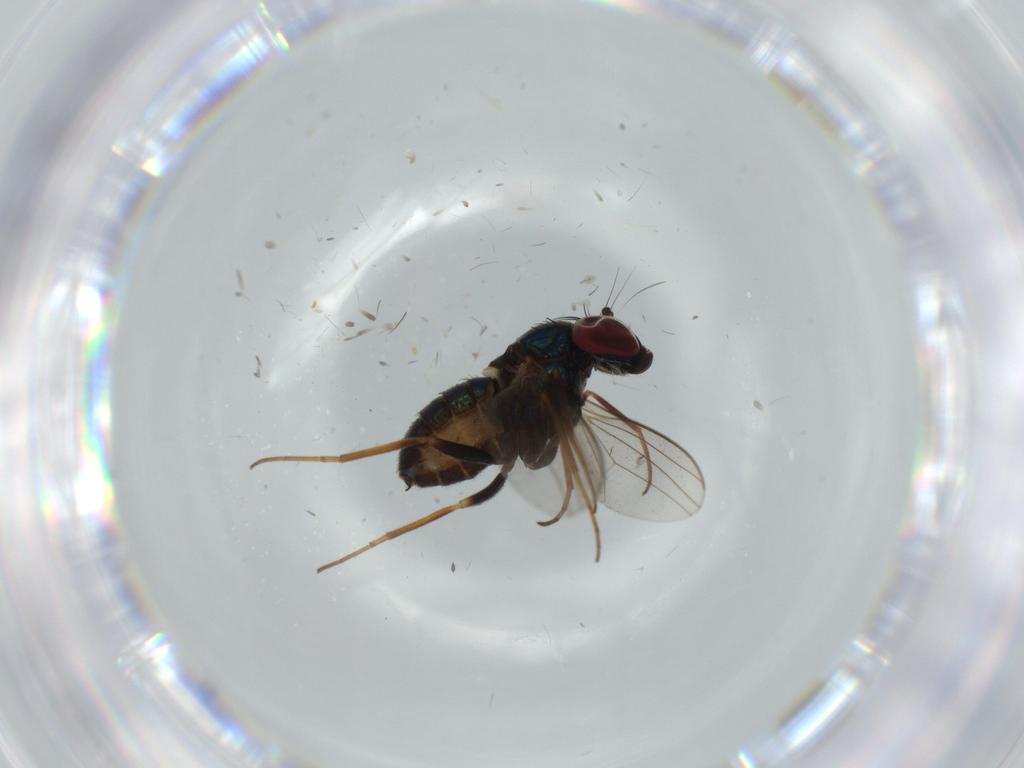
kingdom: Animalia
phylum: Arthropoda
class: Insecta
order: Diptera
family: Dolichopodidae
